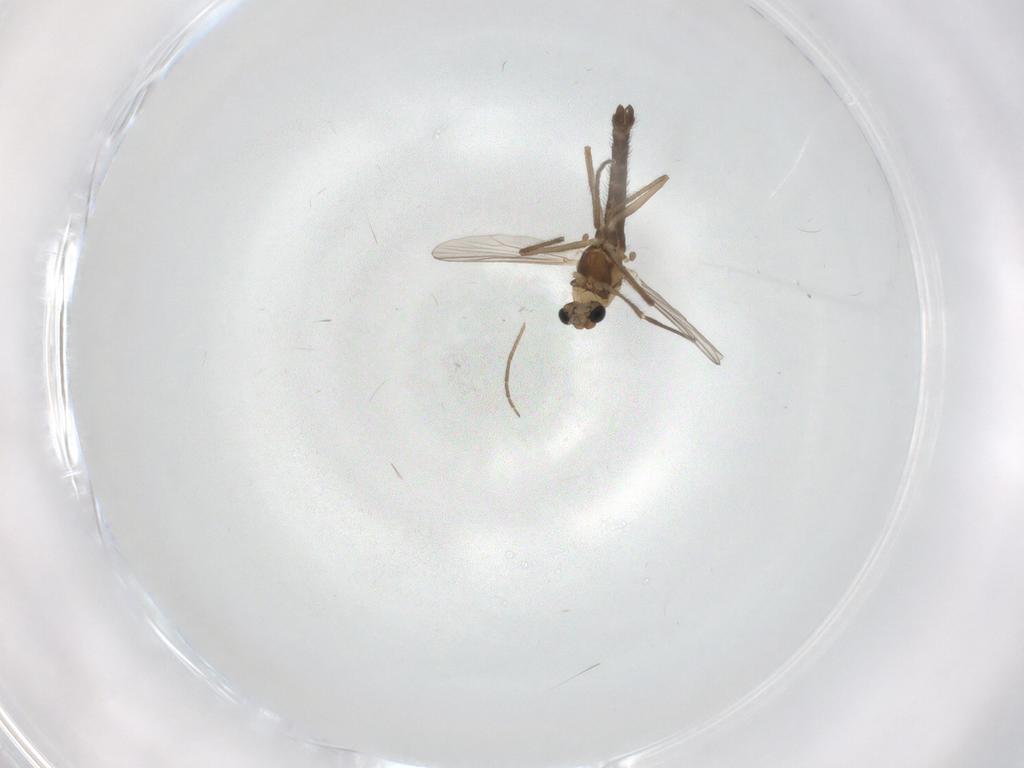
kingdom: Animalia
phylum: Arthropoda
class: Insecta
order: Diptera
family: Chironomidae
